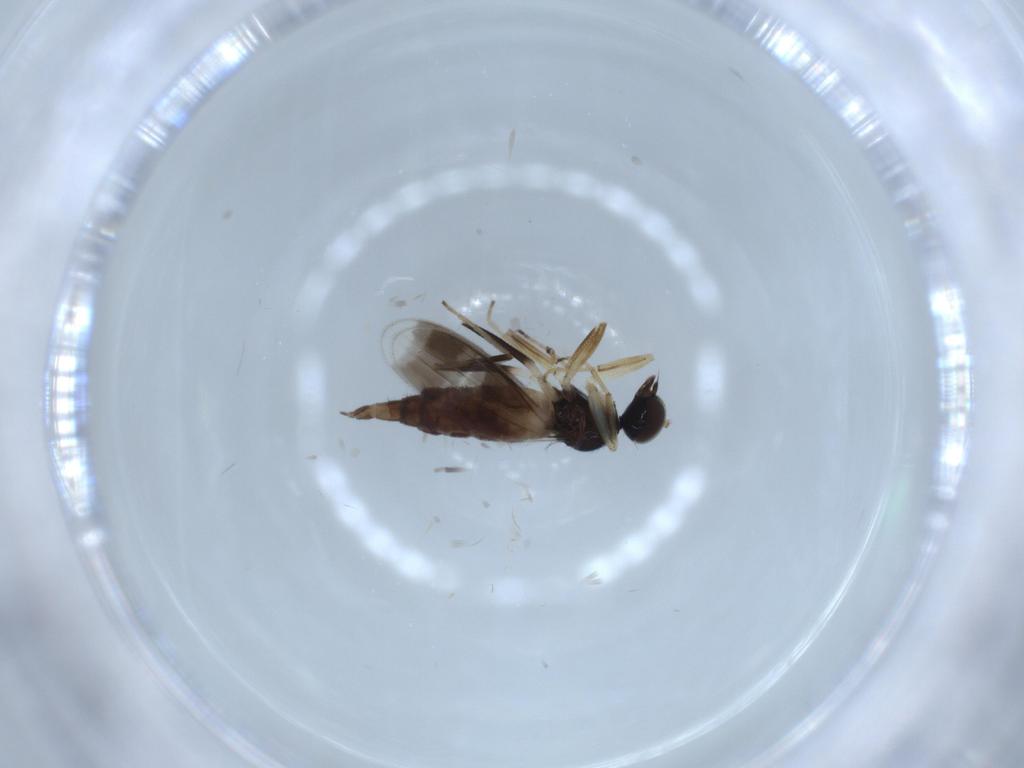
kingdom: Animalia
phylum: Arthropoda
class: Insecta
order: Diptera
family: Hybotidae
